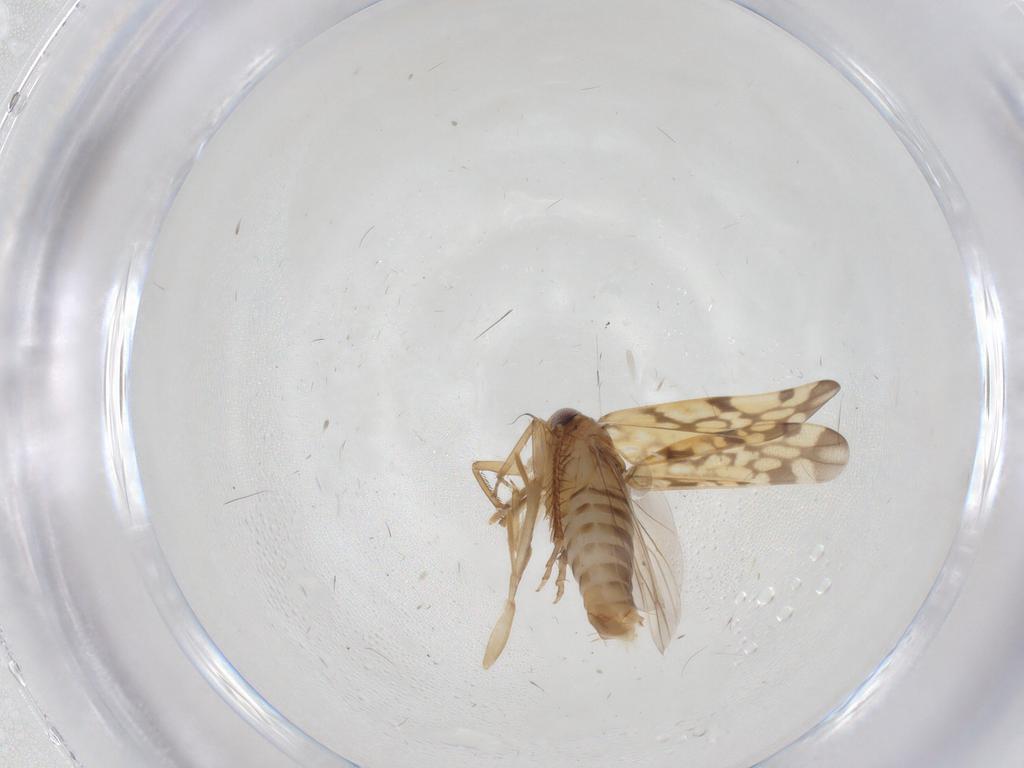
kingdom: Animalia
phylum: Arthropoda
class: Insecta
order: Hemiptera
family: Cicadellidae
